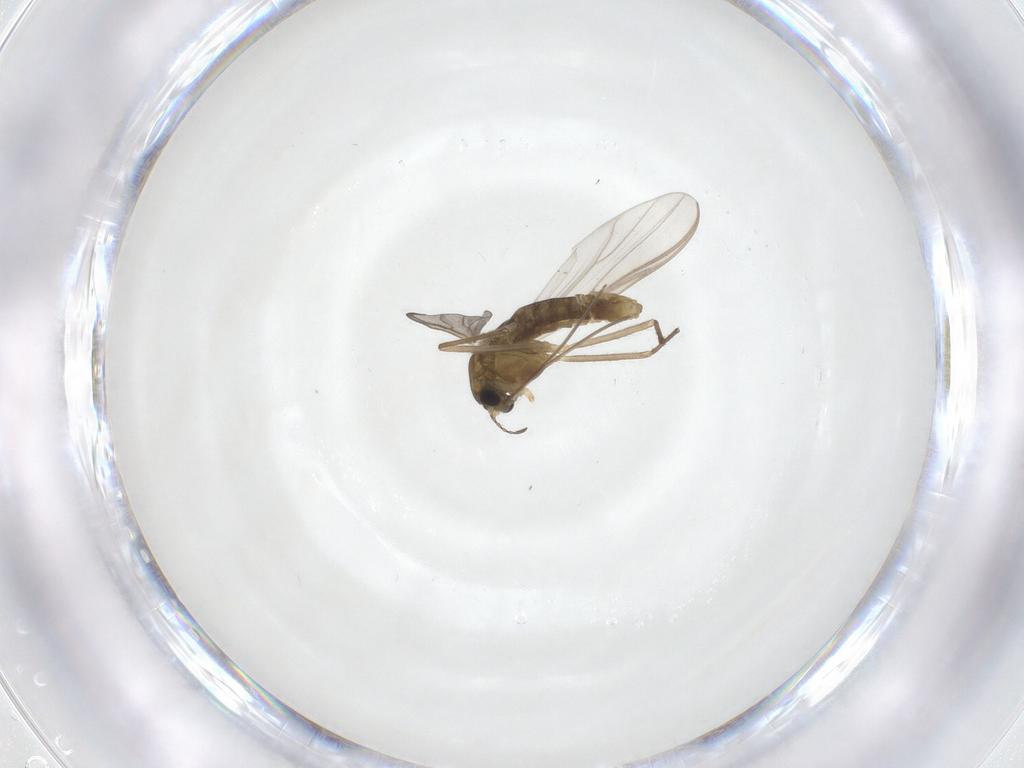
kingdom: Animalia
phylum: Arthropoda
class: Insecta
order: Diptera
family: Chironomidae
